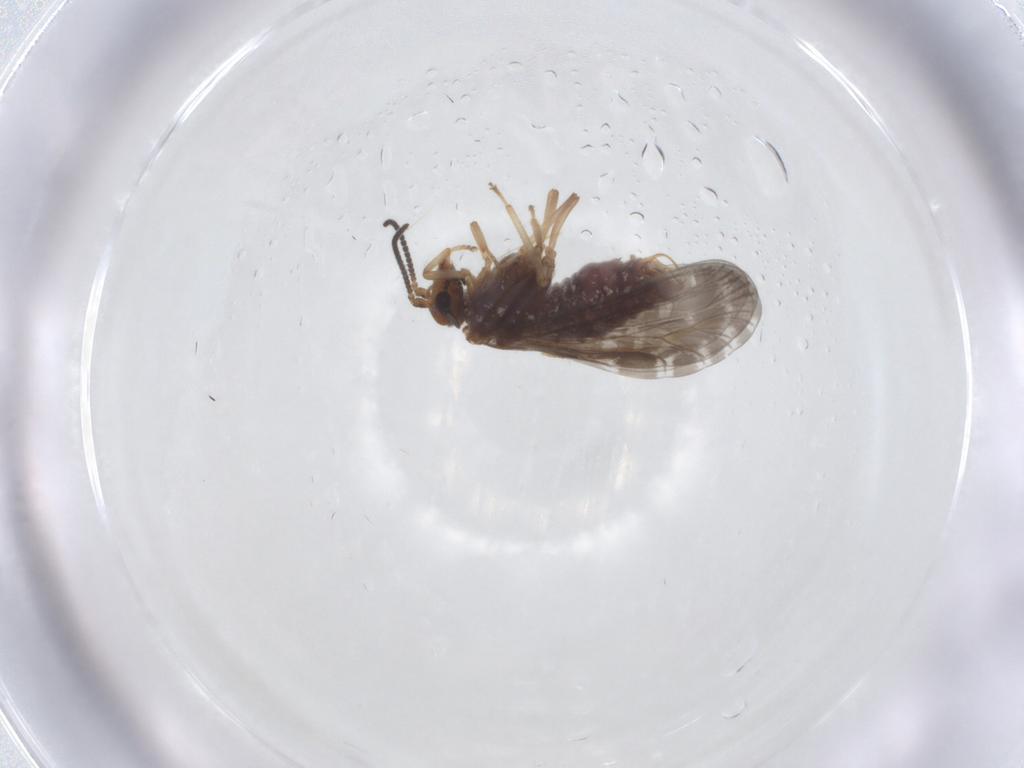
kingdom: Animalia
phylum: Arthropoda
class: Insecta
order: Neuroptera
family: Coniopterygidae
